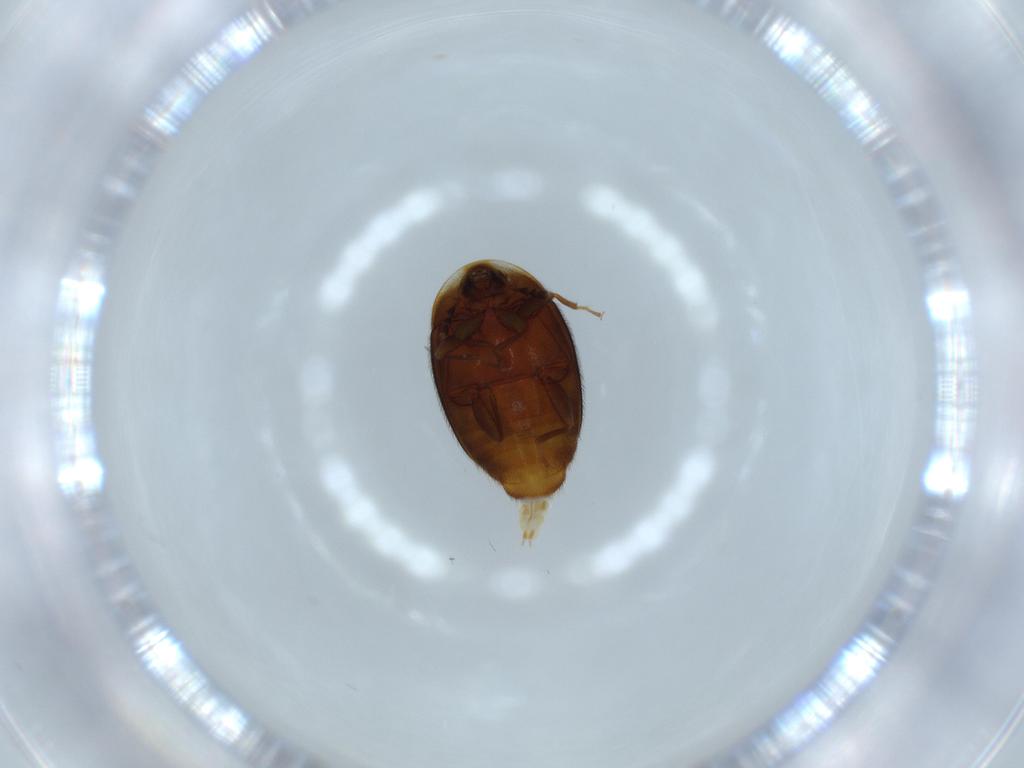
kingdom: Animalia
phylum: Arthropoda
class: Insecta
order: Coleoptera
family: Corylophidae
